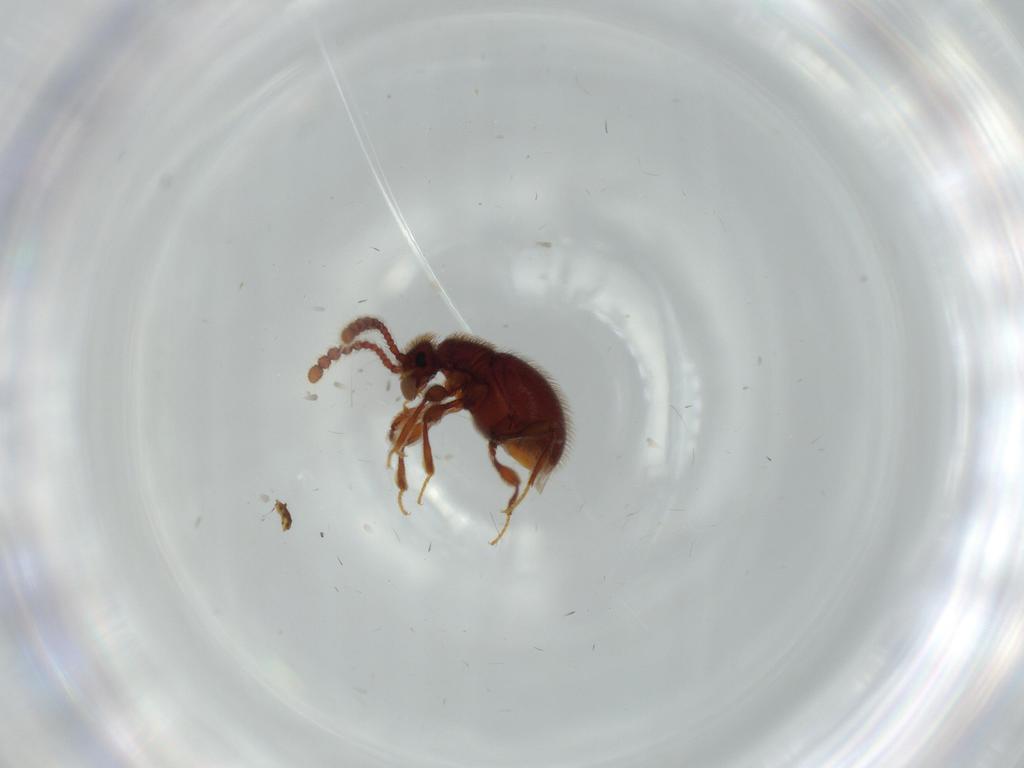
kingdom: Animalia
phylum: Arthropoda
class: Insecta
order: Coleoptera
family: Staphylinidae
